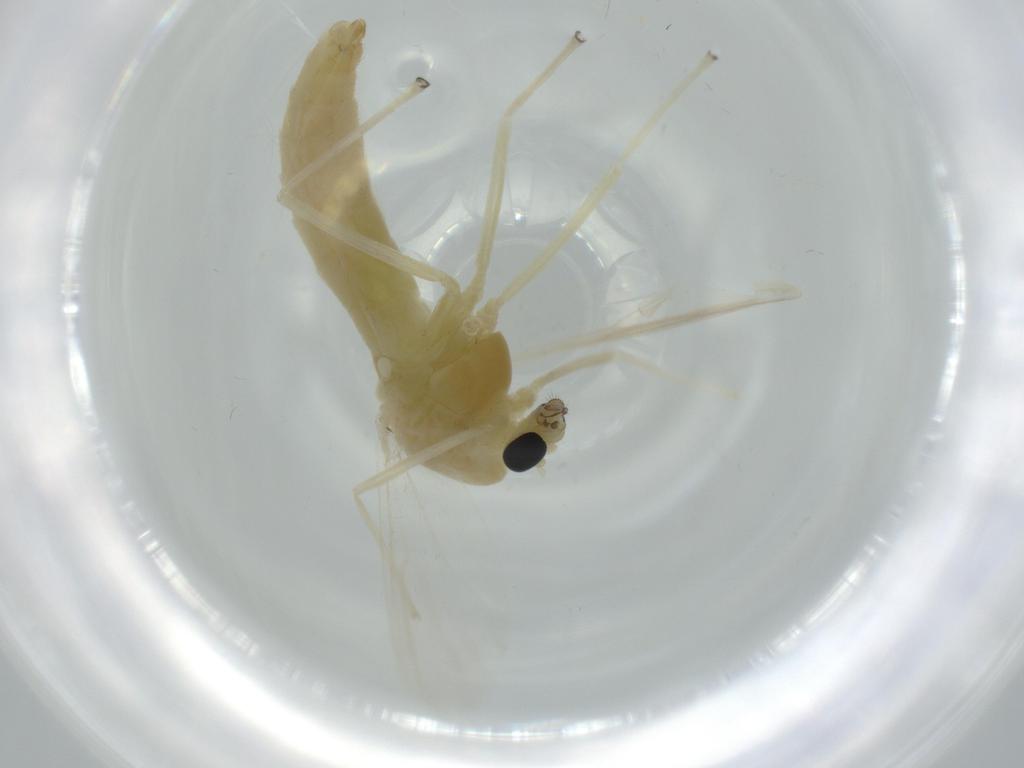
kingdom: Animalia
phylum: Arthropoda
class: Insecta
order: Diptera
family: Chironomidae
